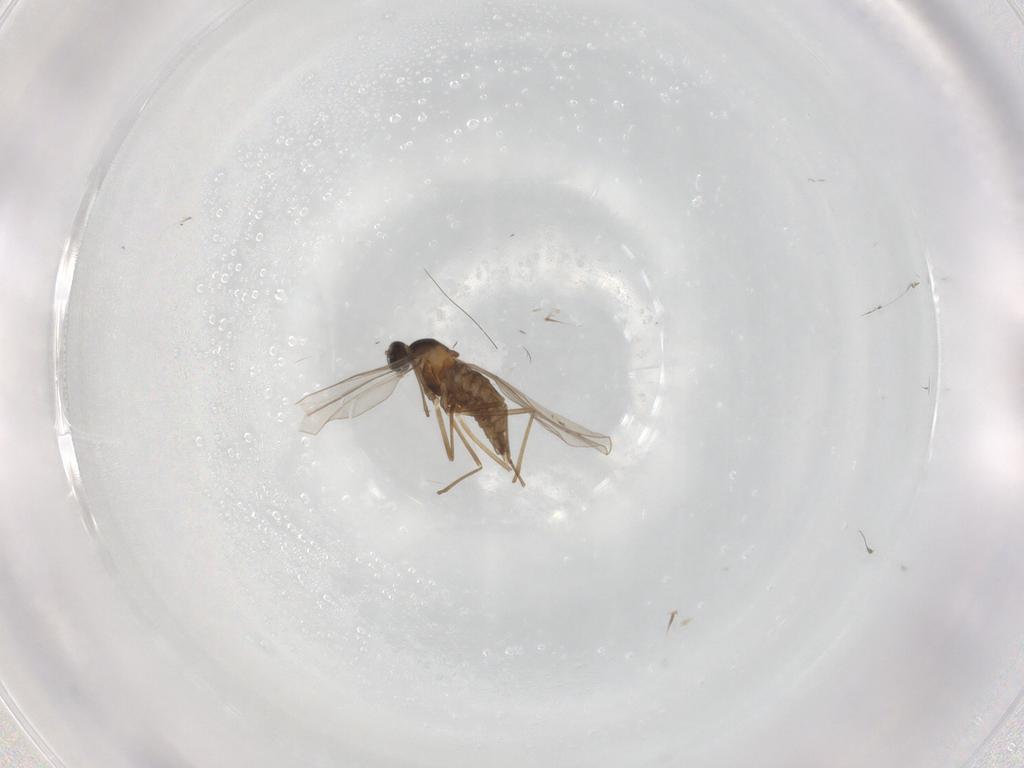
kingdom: Animalia
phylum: Arthropoda
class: Insecta
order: Diptera
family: Cecidomyiidae
